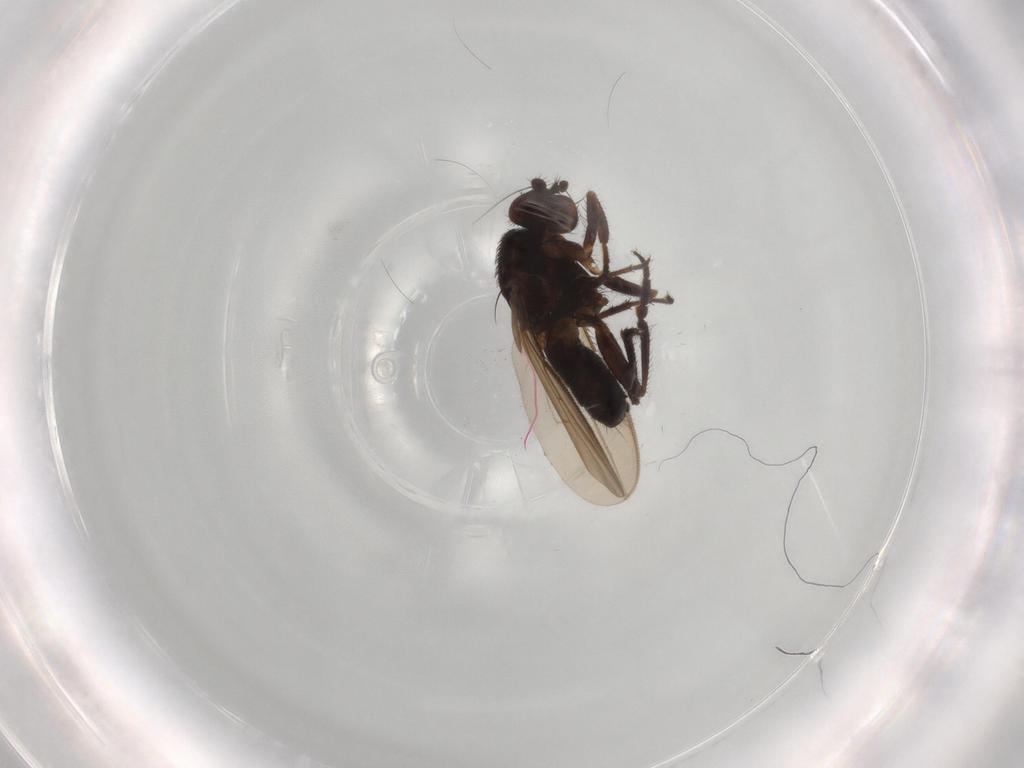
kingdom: Animalia
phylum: Arthropoda
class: Insecta
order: Diptera
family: Sphaeroceridae
